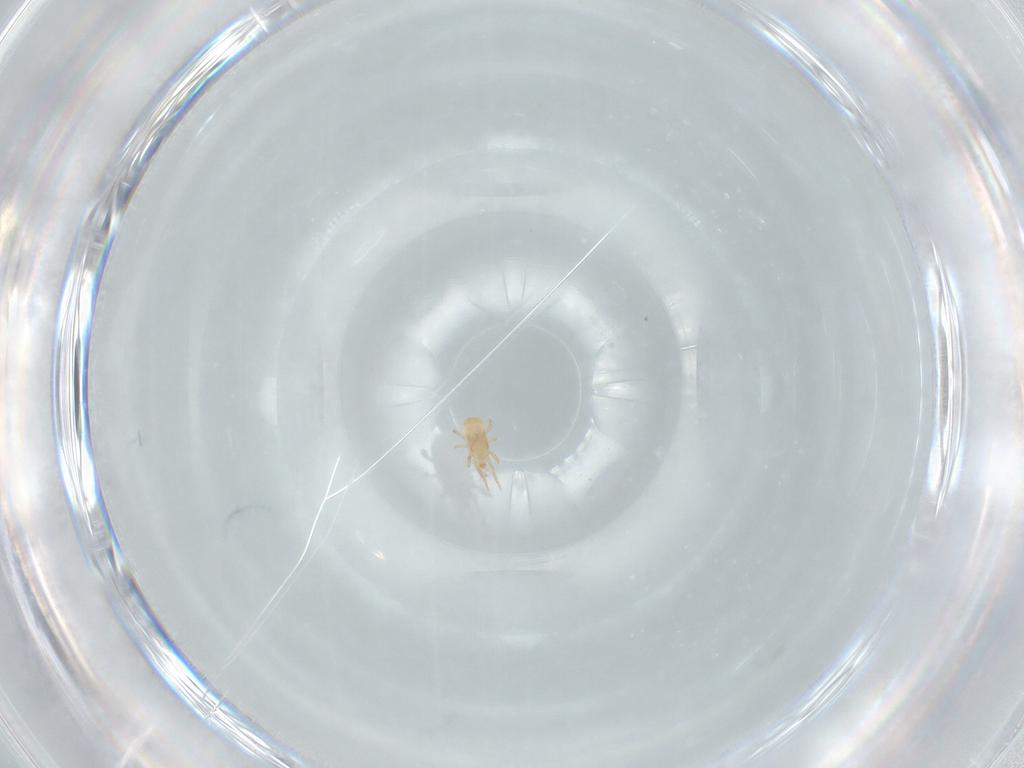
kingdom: Animalia
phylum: Arthropoda
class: Arachnida
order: Mesostigmata
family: Ascidae
